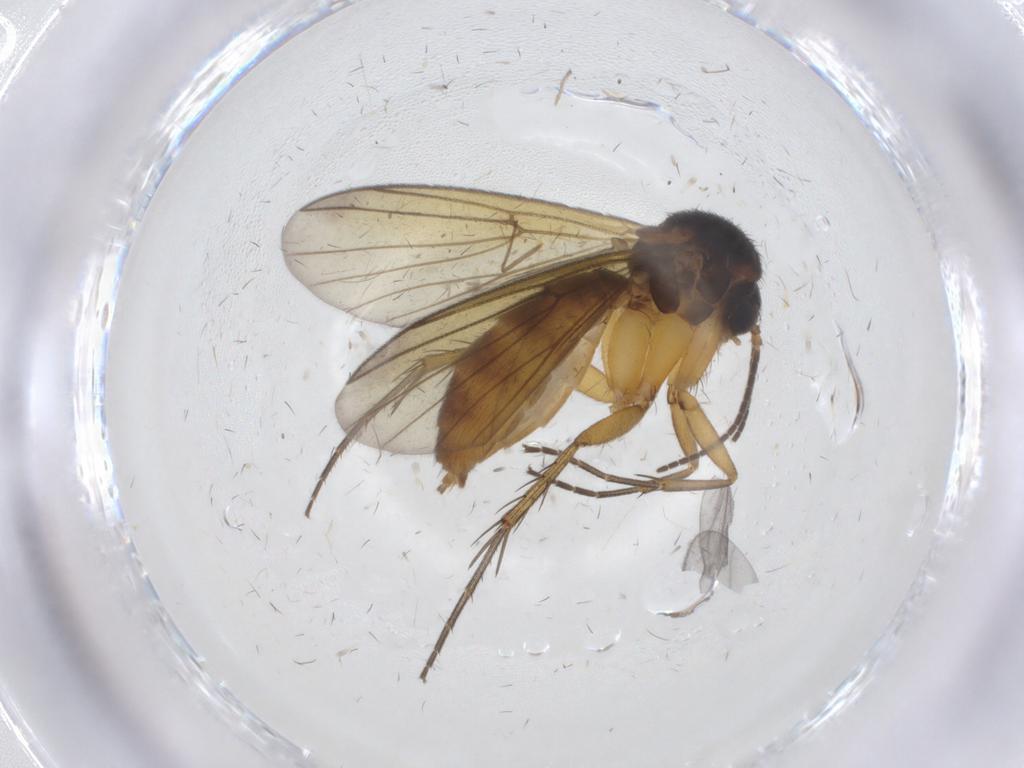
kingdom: Animalia
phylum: Arthropoda
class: Insecta
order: Diptera
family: Mycetophilidae
